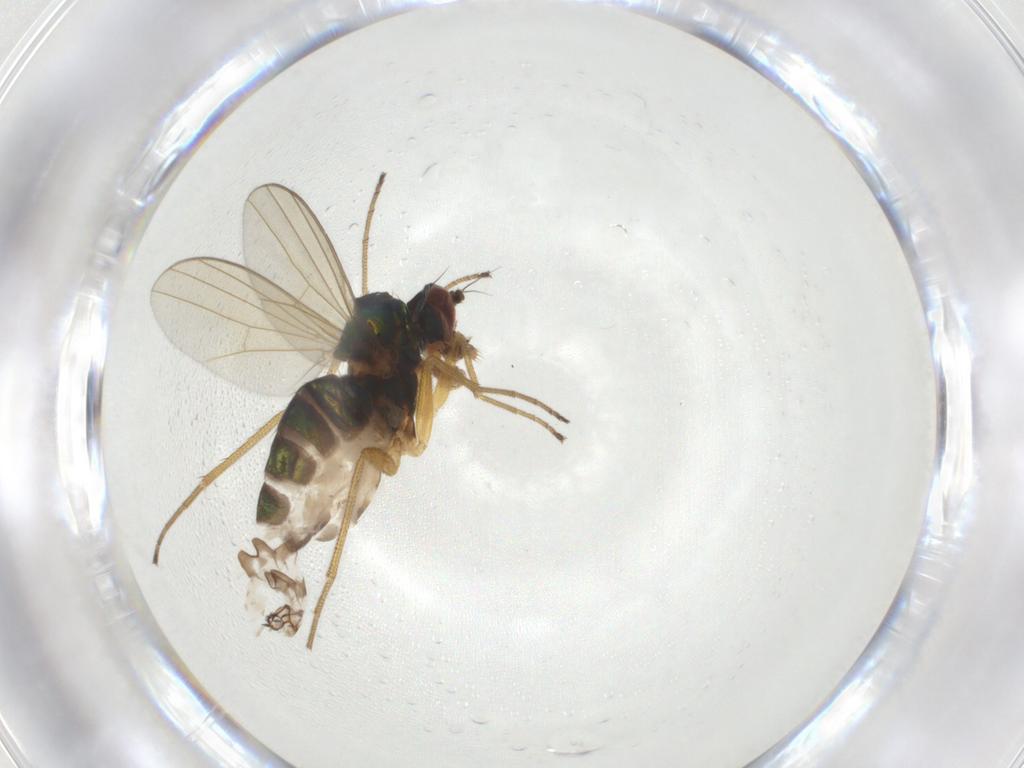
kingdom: Animalia
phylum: Arthropoda
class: Insecta
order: Diptera
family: Dolichopodidae
